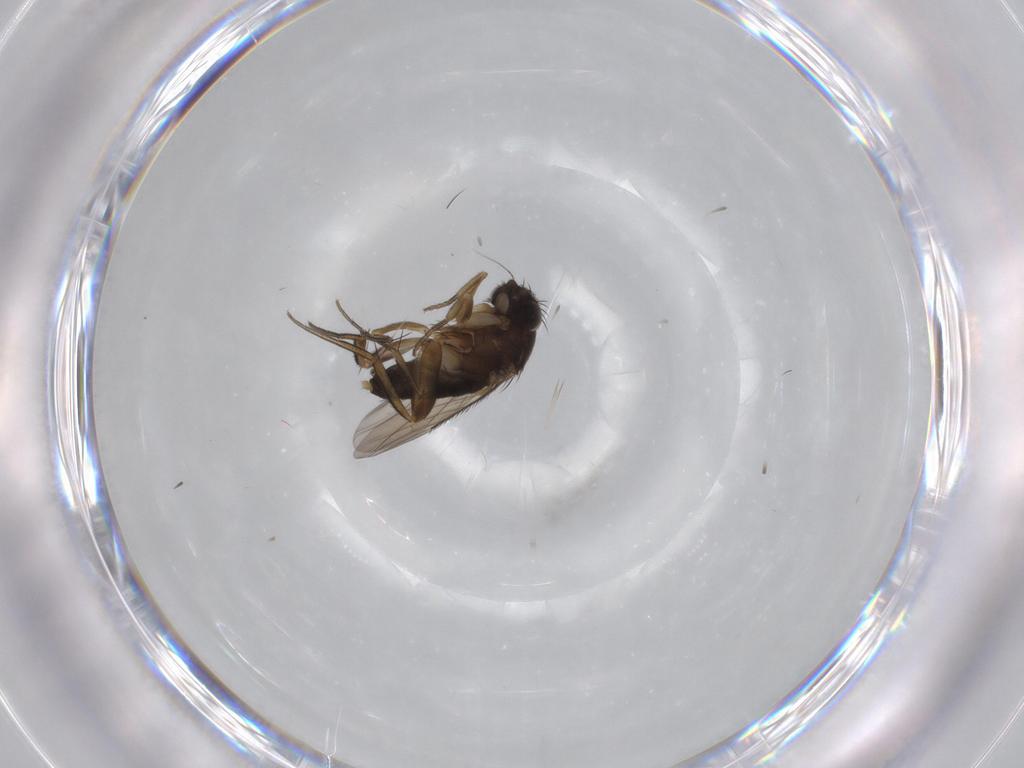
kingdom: Animalia
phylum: Arthropoda
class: Insecta
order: Diptera
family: Phoridae
